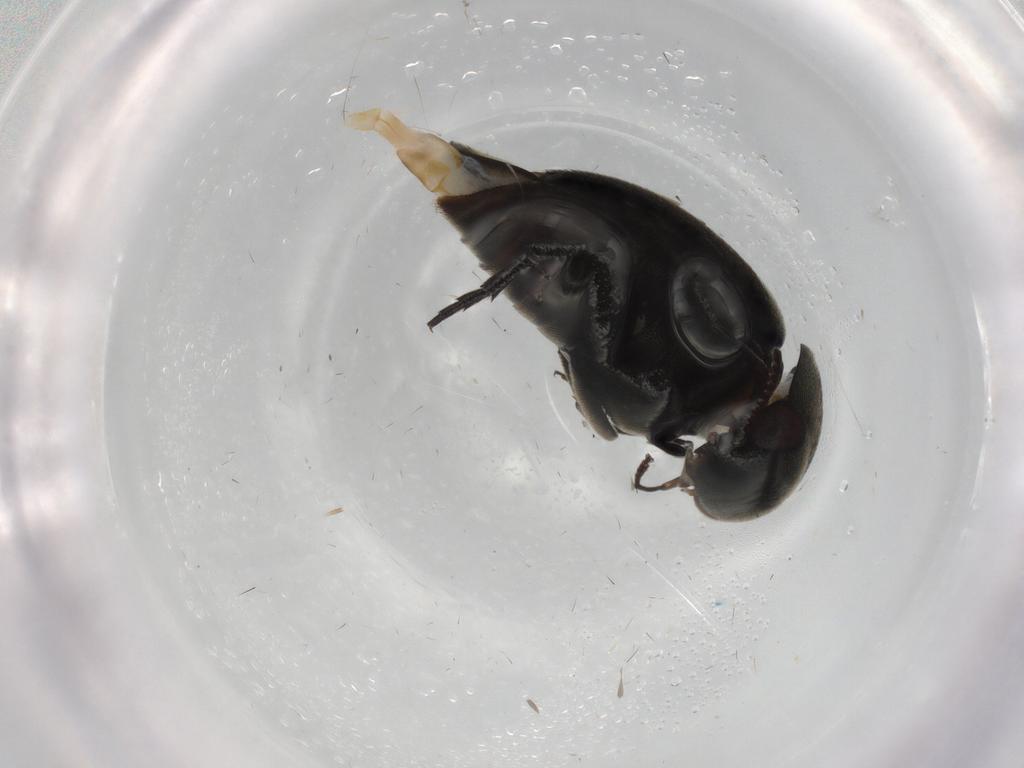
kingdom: Animalia
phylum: Arthropoda
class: Insecta
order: Coleoptera
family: Mordellidae
